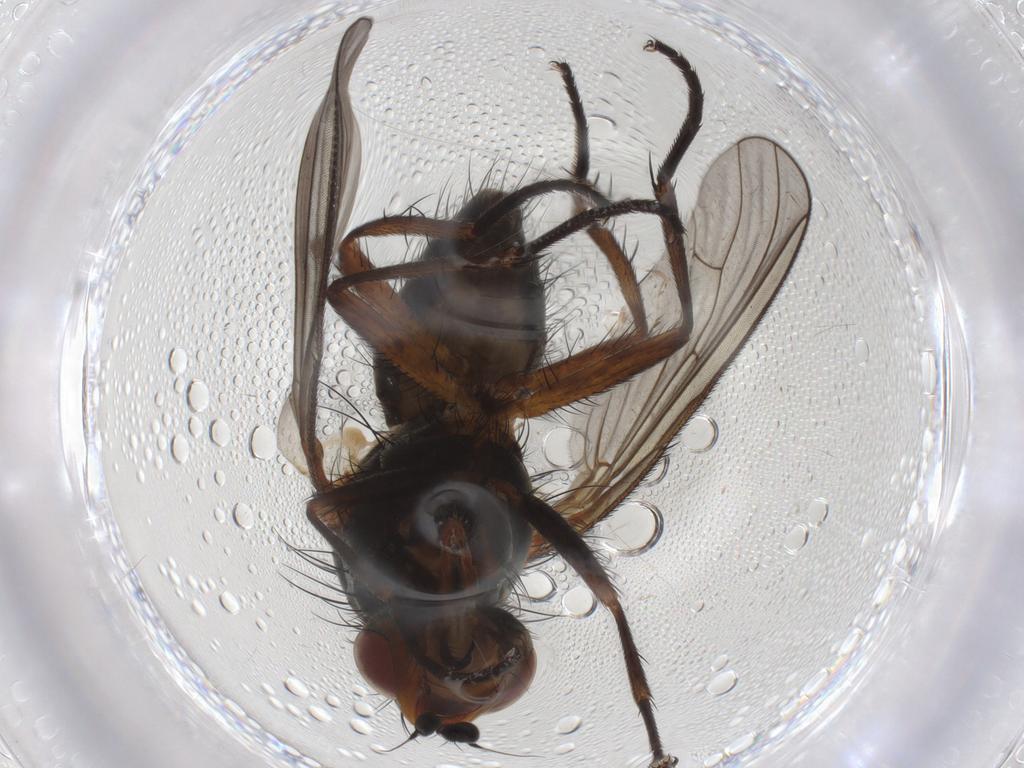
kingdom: Animalia
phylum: Arthropoda
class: Insecta
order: Diptera
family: Anthomyiidae
